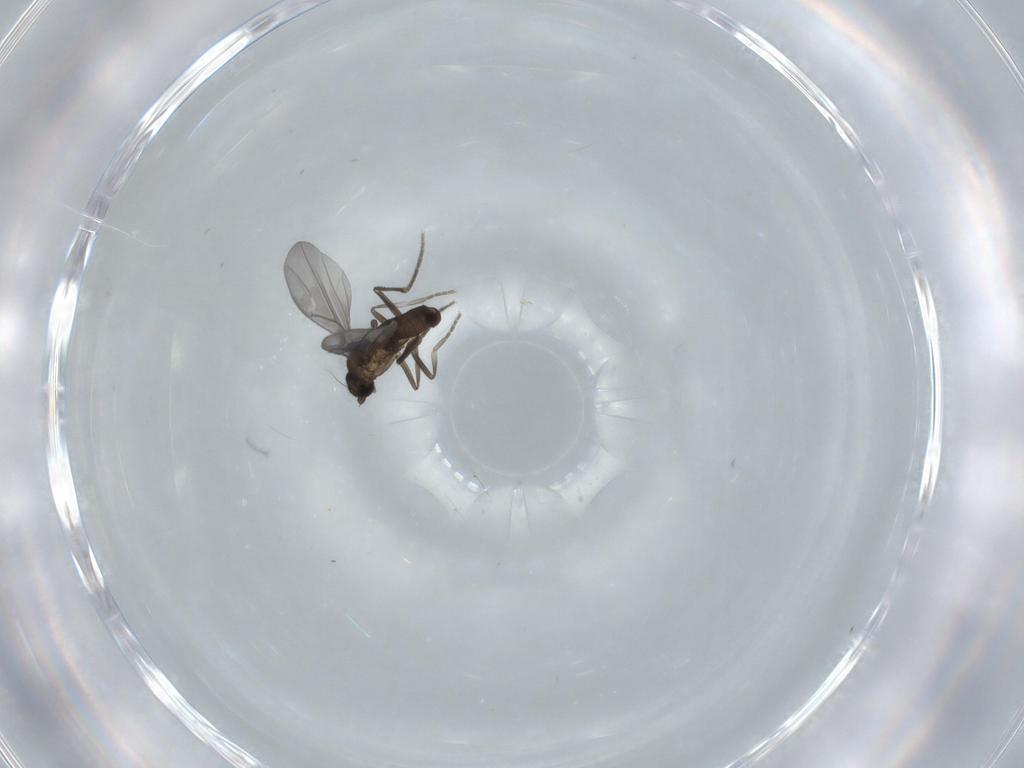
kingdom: Animalia
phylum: Arthropoda
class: Insecta
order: Diptera
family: Phoridae
